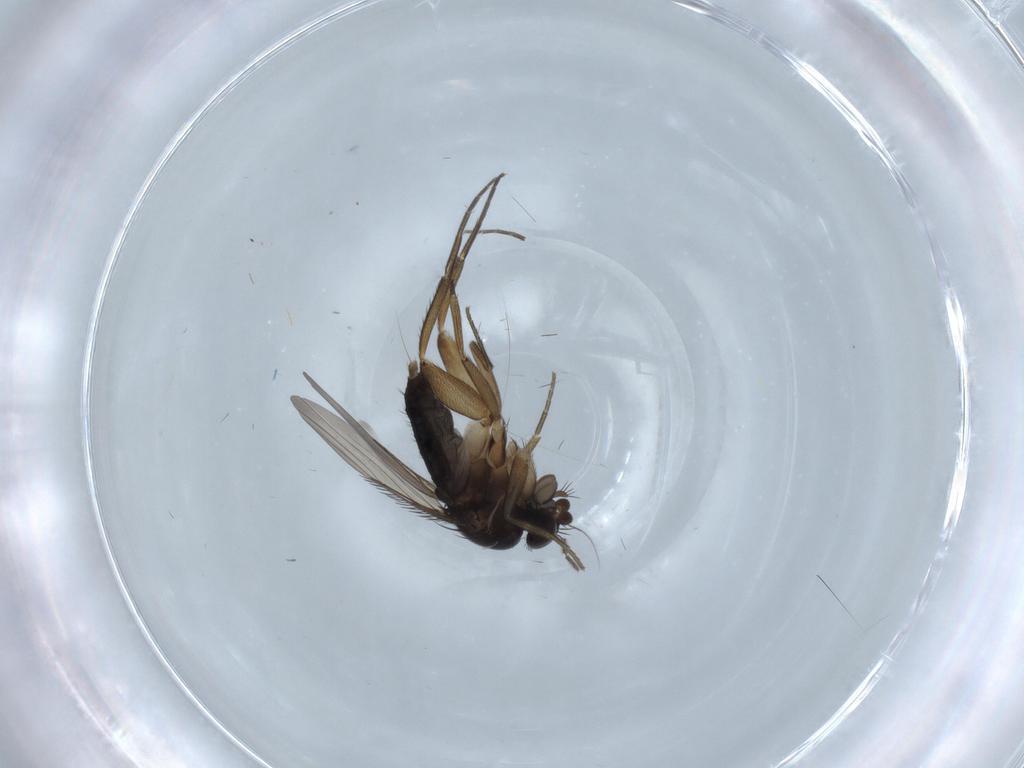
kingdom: Animalia
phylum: Arthropoda
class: Insecta
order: Diptera
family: Phoridae
